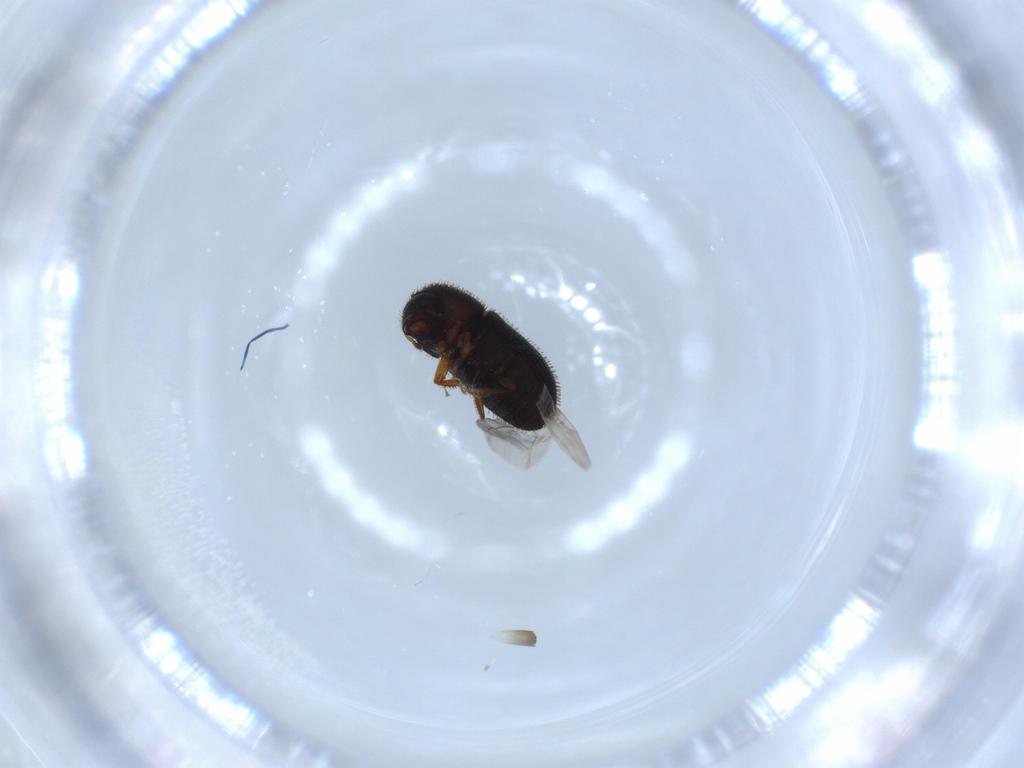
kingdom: Animalia
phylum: Arthropoda
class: Insecta
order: Coleoptera
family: Curculionidae
